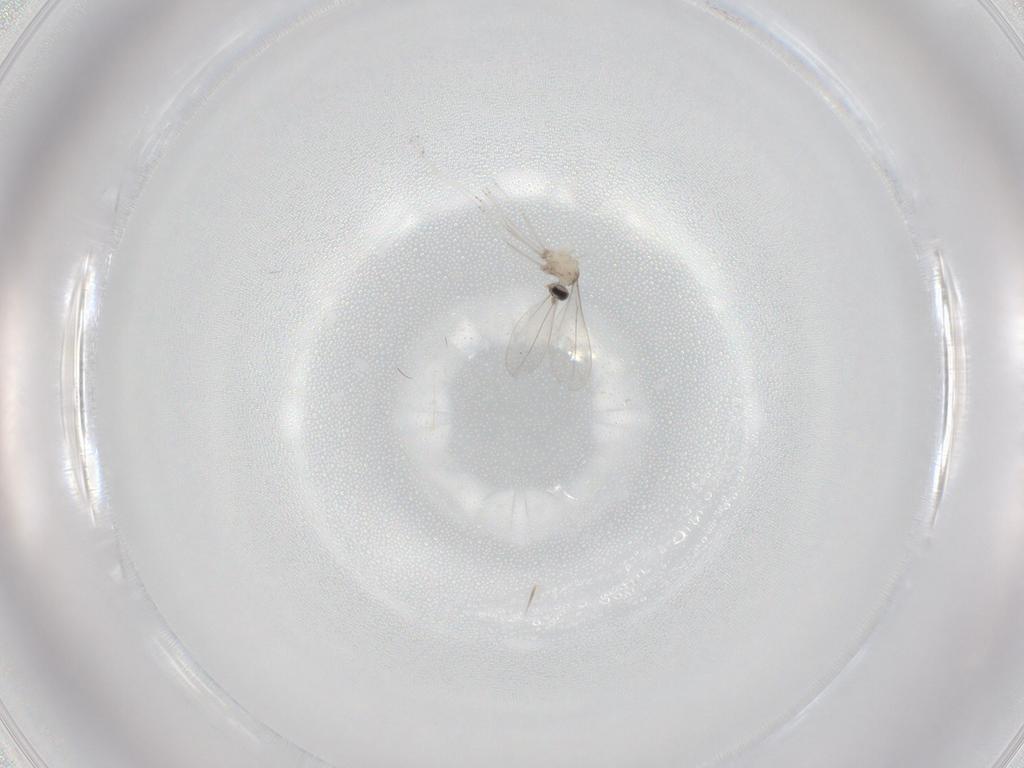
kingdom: Animalia
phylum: Arthropoda
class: Insecta
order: Diptera
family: Cecidomyiidae
